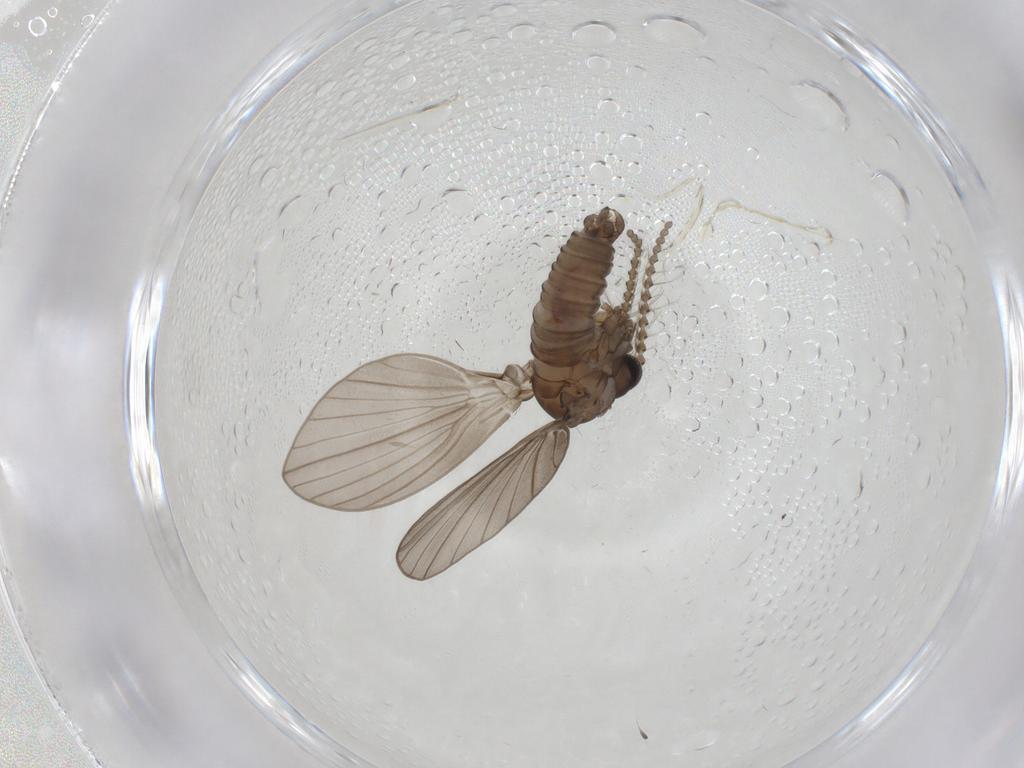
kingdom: Animalia
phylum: Arthropoda
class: Insecta
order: Diptera
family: Psychodidae
